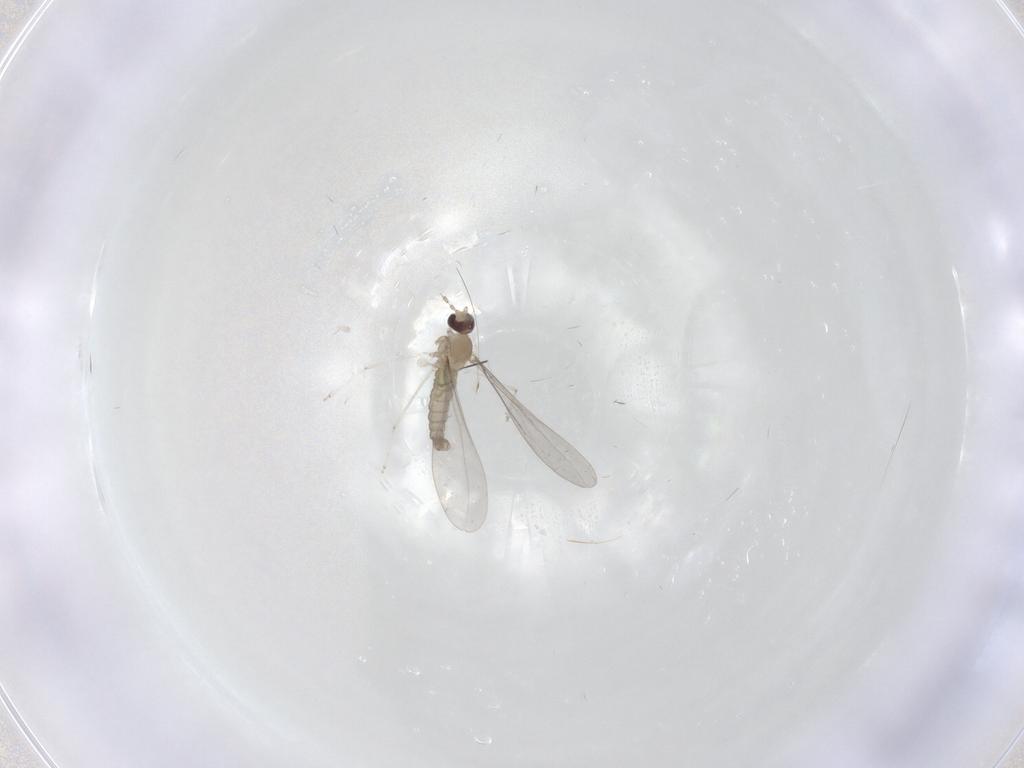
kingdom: Animalia
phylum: Arthropoda
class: Insecta
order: Diptera
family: Cecidomyiidae
